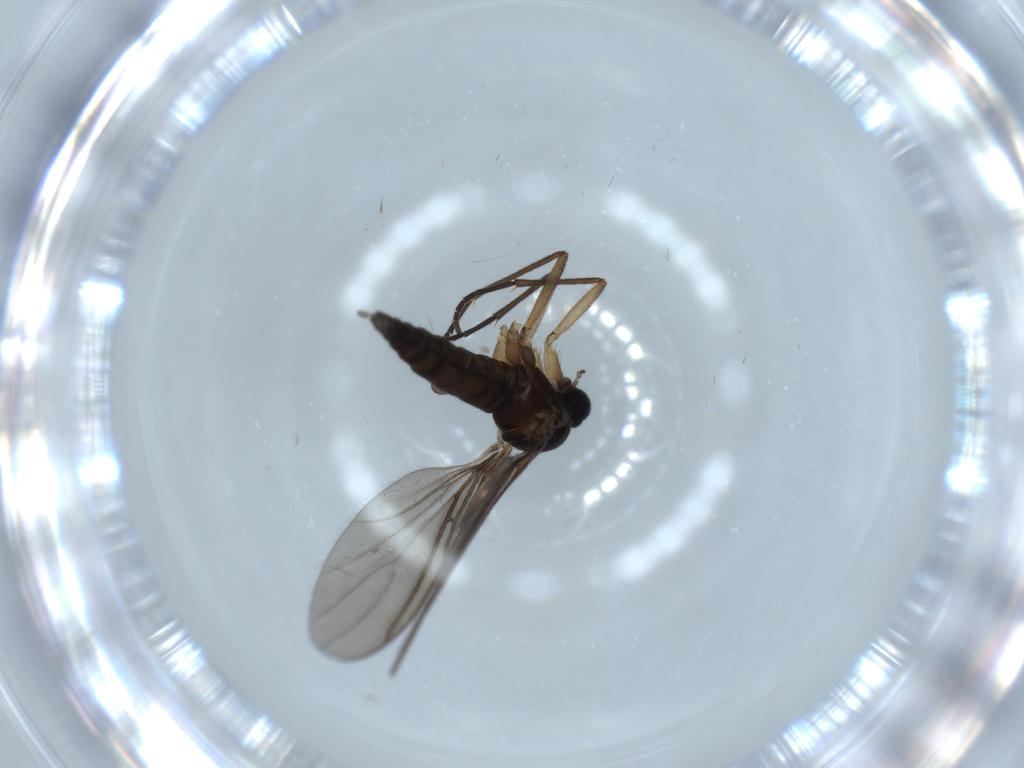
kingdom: Animalia
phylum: Arthropoda
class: Insecta
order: Diptera
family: Sciaridae
